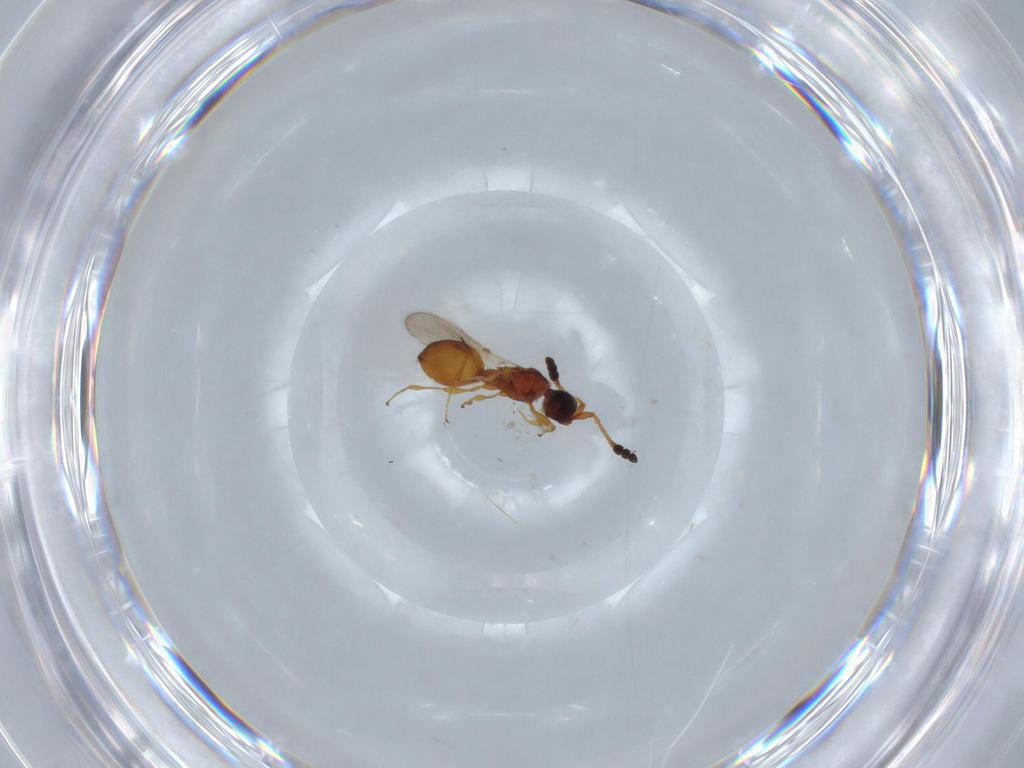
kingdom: Animalia
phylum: Arthropoda
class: Insecta
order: Hymenoptera
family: Diapriidae
